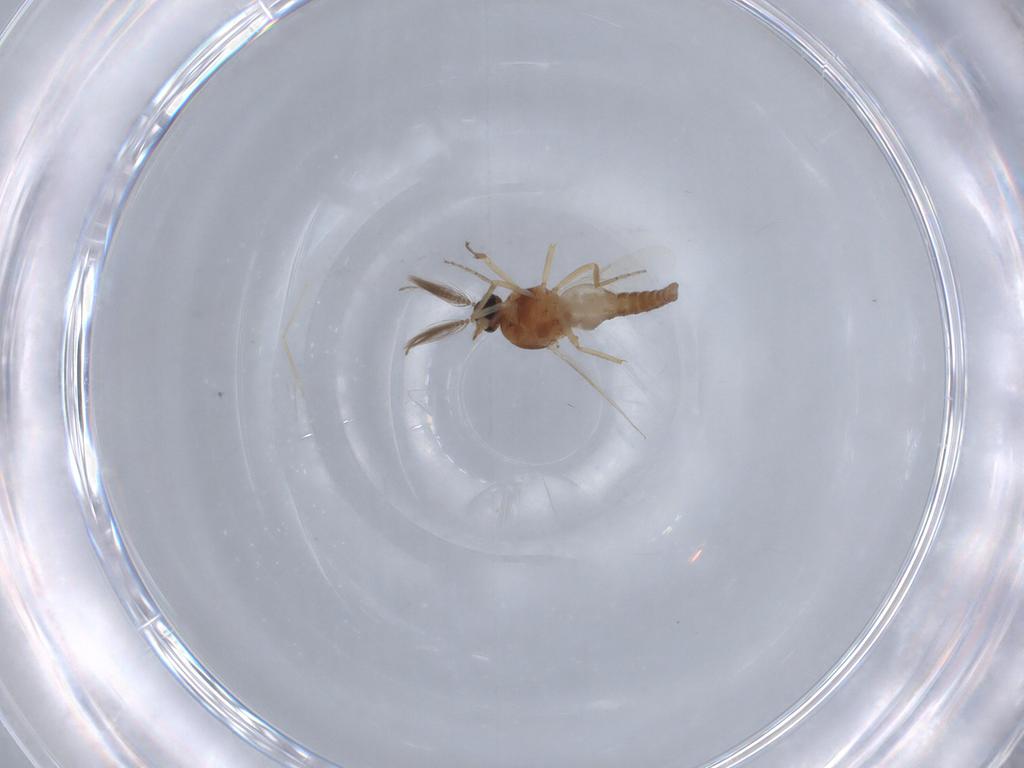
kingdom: Animalia
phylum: Arthropoda
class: Insecta
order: Diptera
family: Ceratopogonidae
